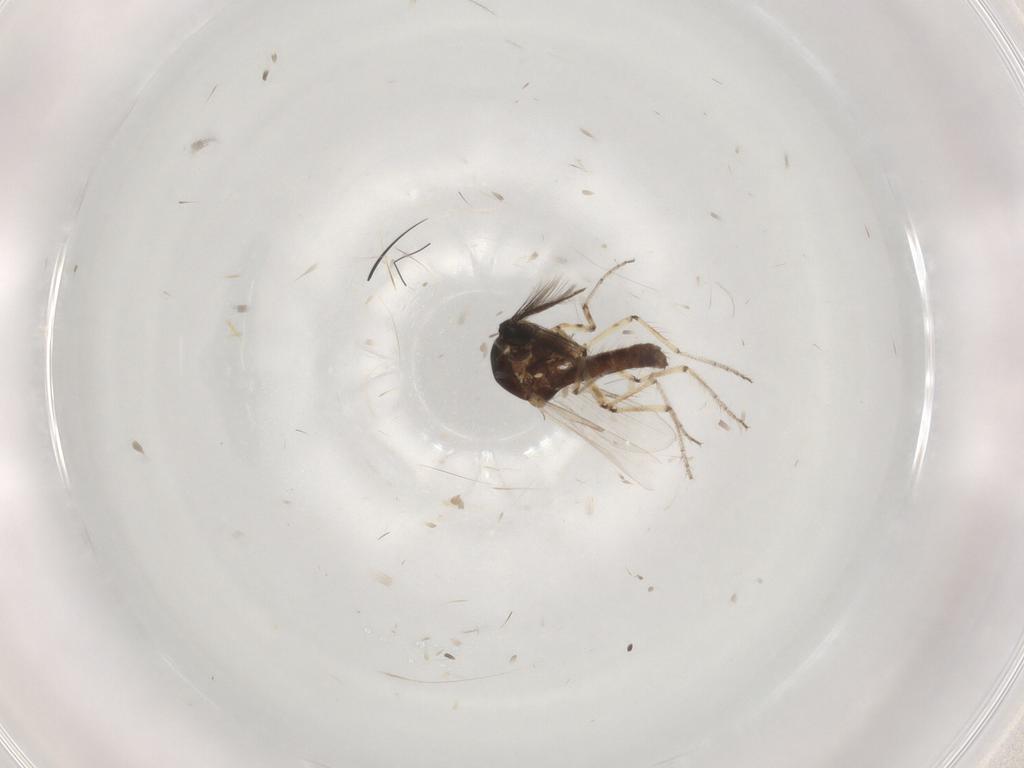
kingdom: Animalia
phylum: Arthropoda
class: Insecta
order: Diptera
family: Ceratopogonidae
